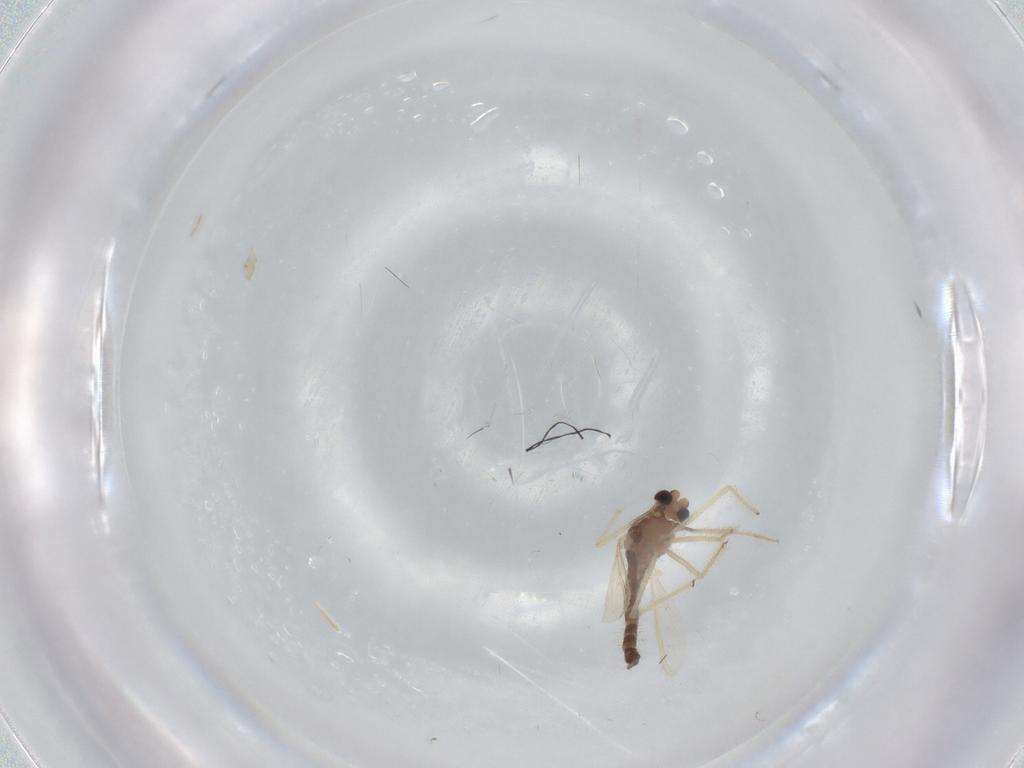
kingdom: Animalia
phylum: Arthropoda
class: Insecta
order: Diptera
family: Chironomidae
